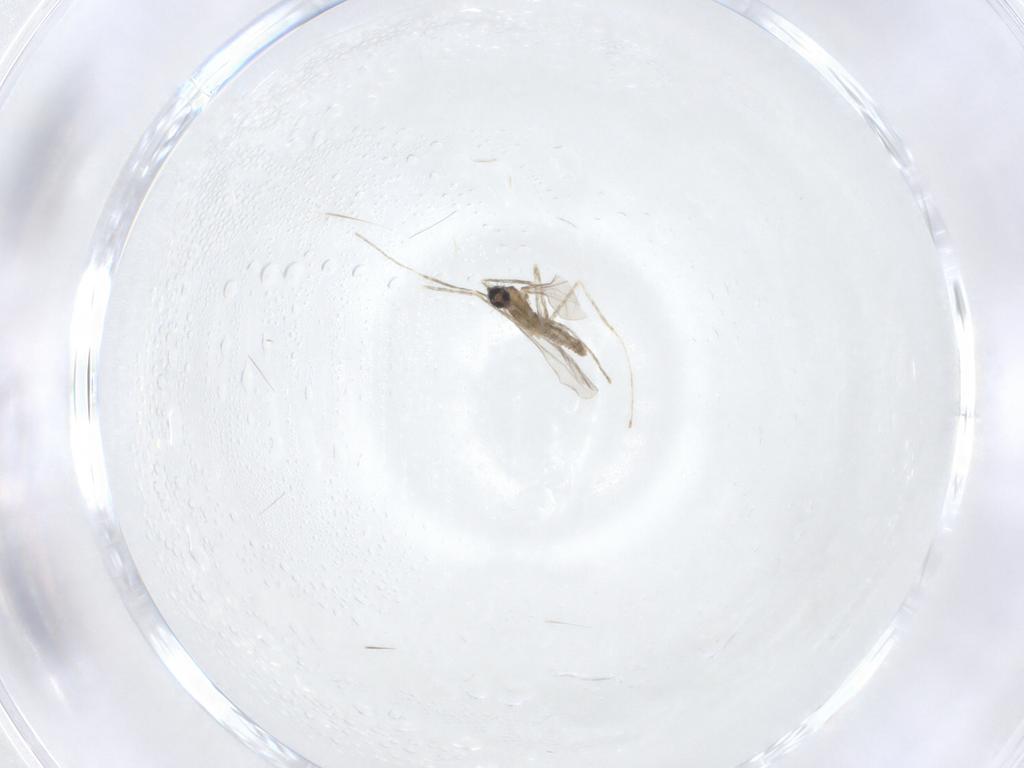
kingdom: Animalia
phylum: Arthropoda
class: Insecta
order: Diptera
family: Cecidomyiidae
